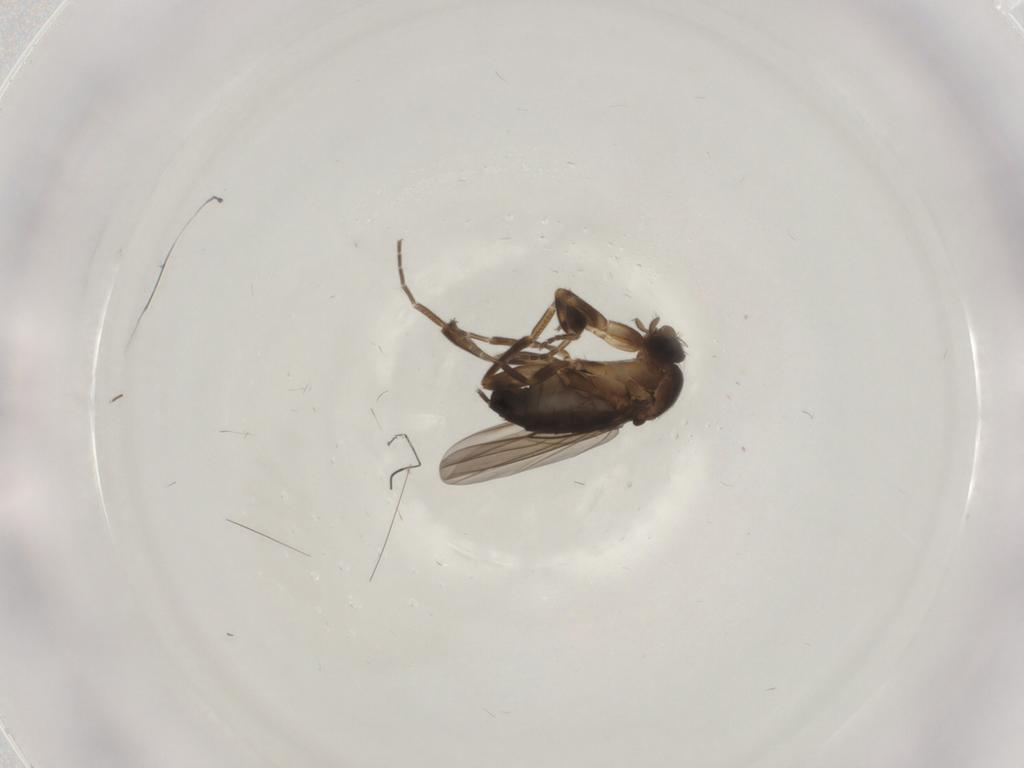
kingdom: Animalia
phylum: Arthropoda
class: Insecta
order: Diptera
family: Phoridae
